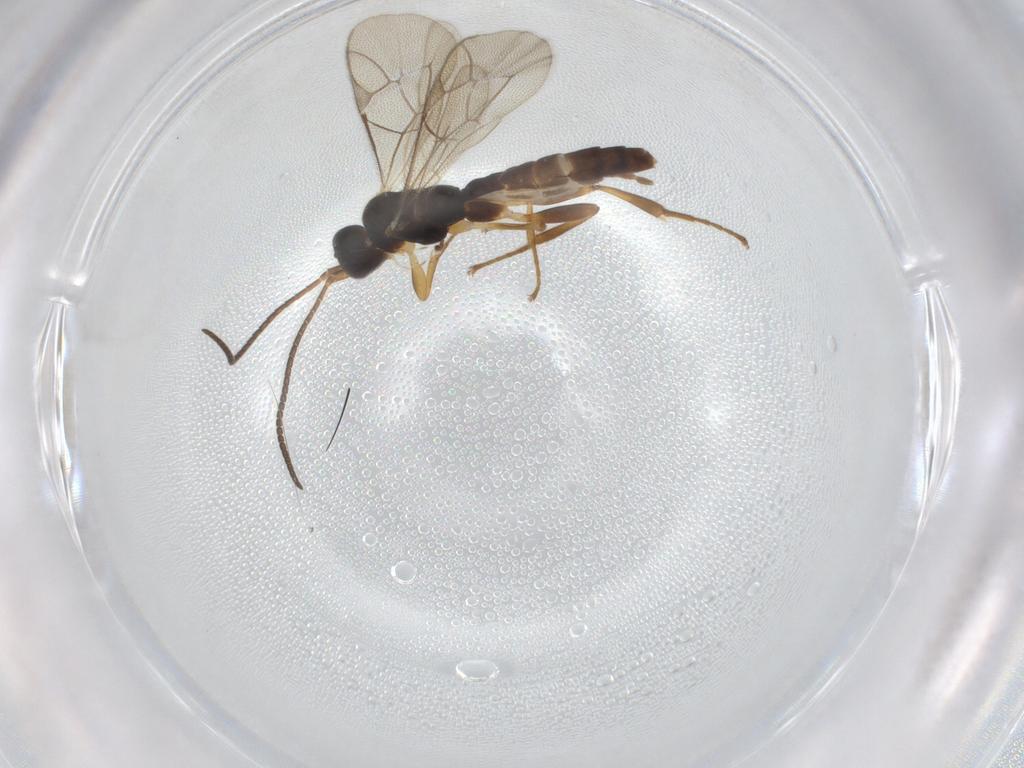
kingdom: Animalia
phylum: Arthropoda
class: Insecta
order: Hymenoptera
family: Ichneumonidae
